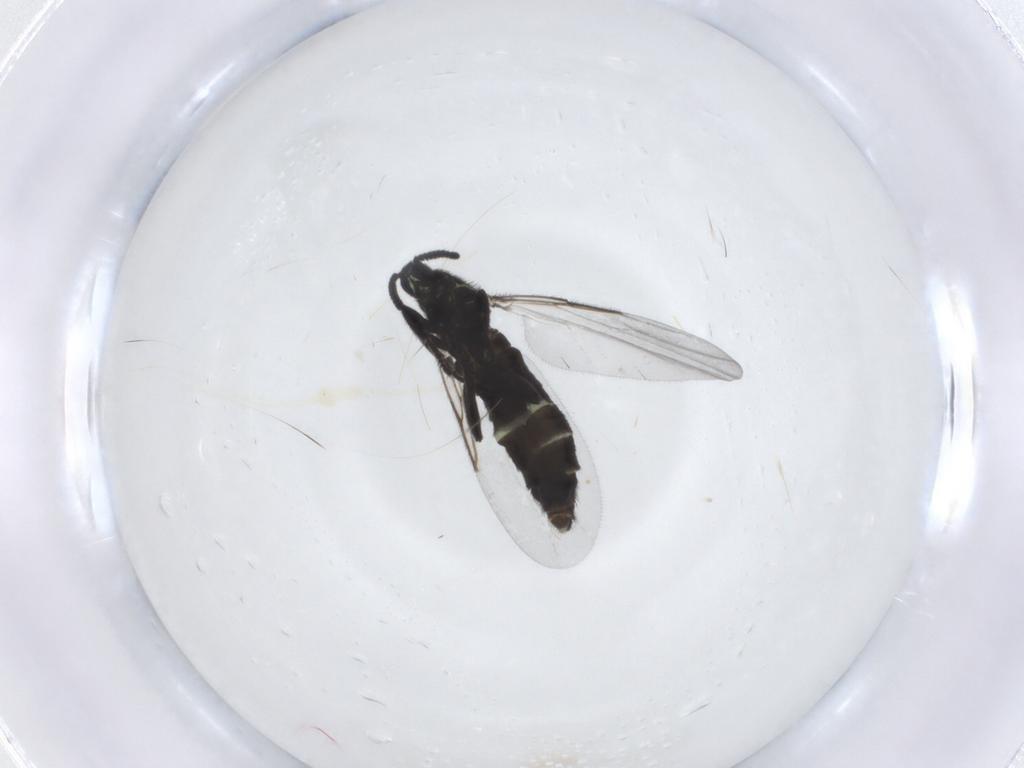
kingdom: Animalia
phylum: Arthropoda
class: Insecta
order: Diptera
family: Scatopsidae
